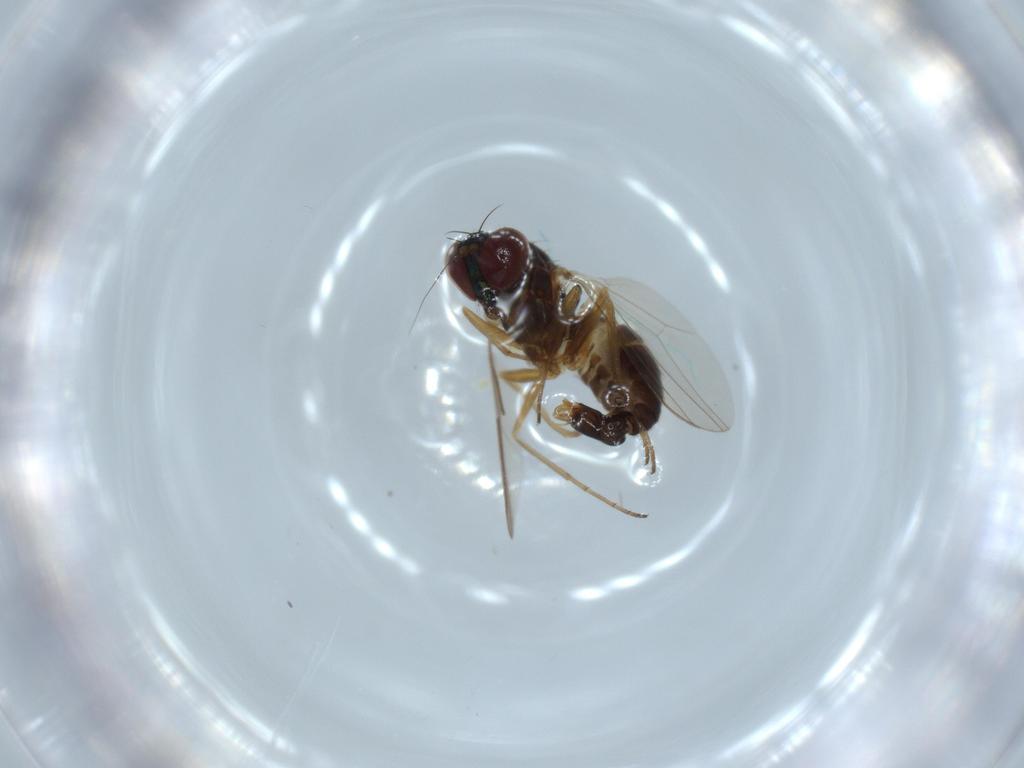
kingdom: Animalia
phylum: Arthropoda
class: Insecta
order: Diptera
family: Dolichopodidae
